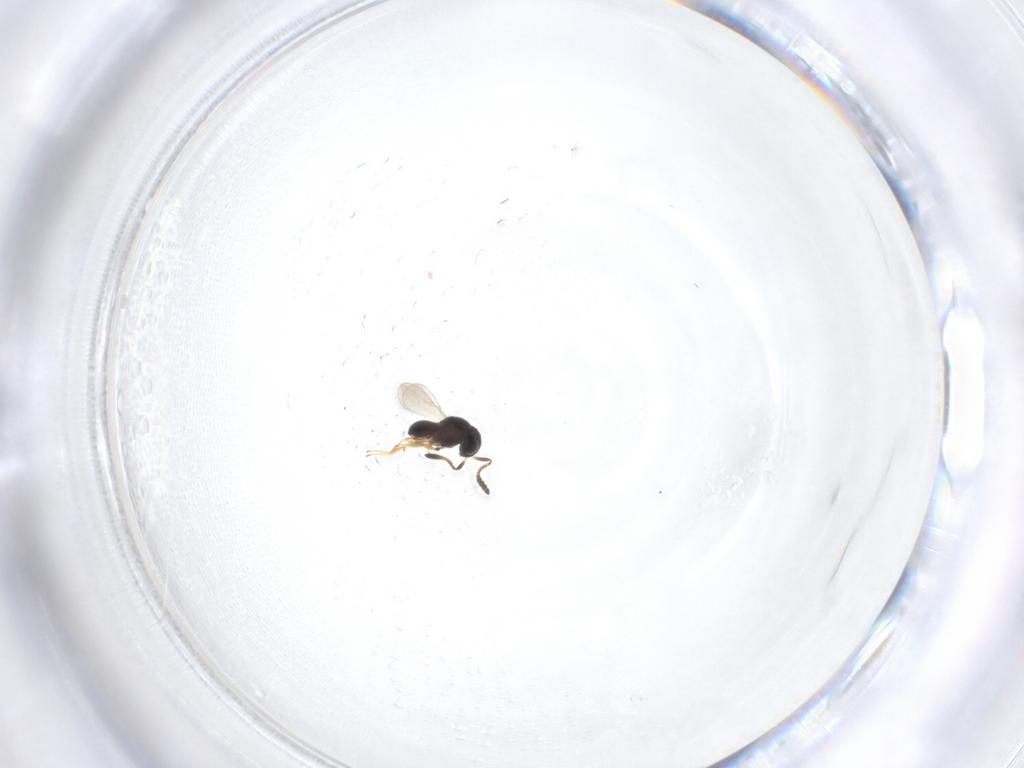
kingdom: Animalia
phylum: Arthropoda
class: Insecta
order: Hymenoptera
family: Scelionidae
